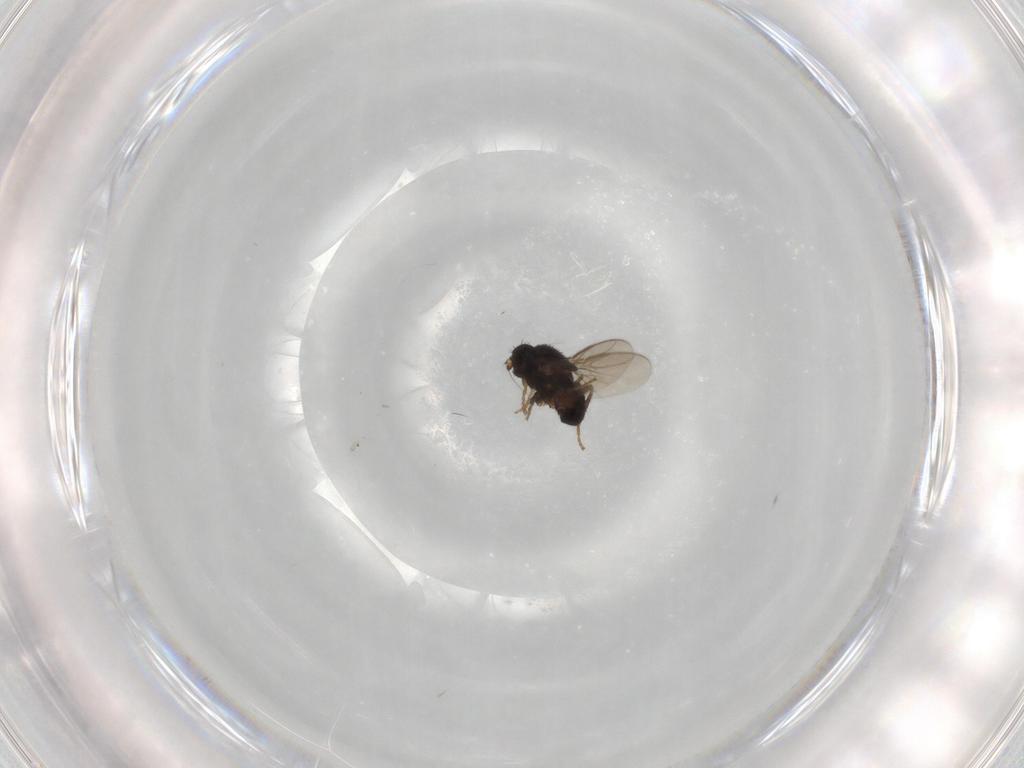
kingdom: Animalia
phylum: Arthropoda
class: Insecta
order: Diptera
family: Sphaeroceridae
